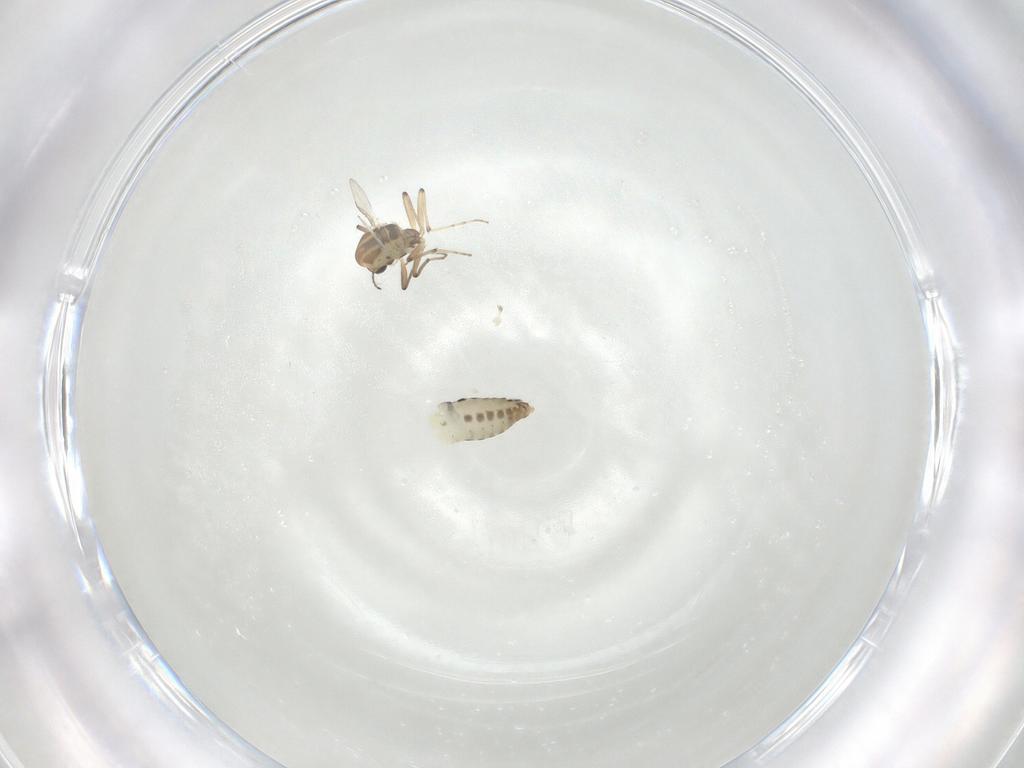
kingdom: Animalia
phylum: Arthropoda
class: Insecta
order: Diptera
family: Chironomidae
